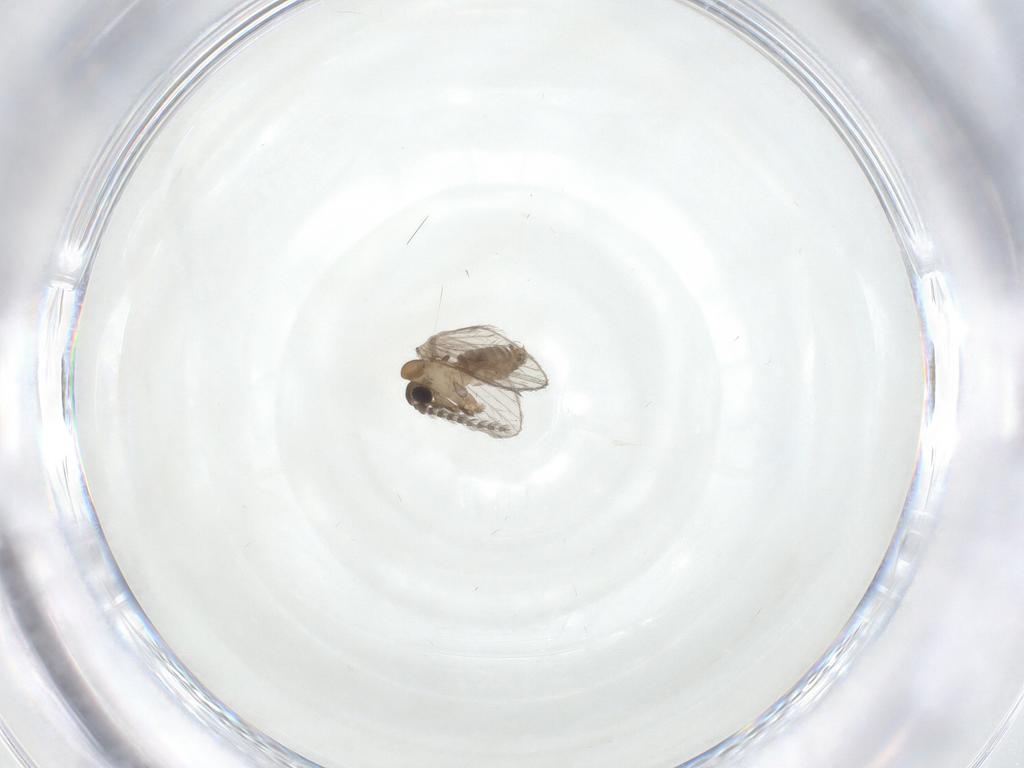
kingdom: Animalia
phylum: Arthropoda
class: Insecta
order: Diptera
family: Psychodidae
